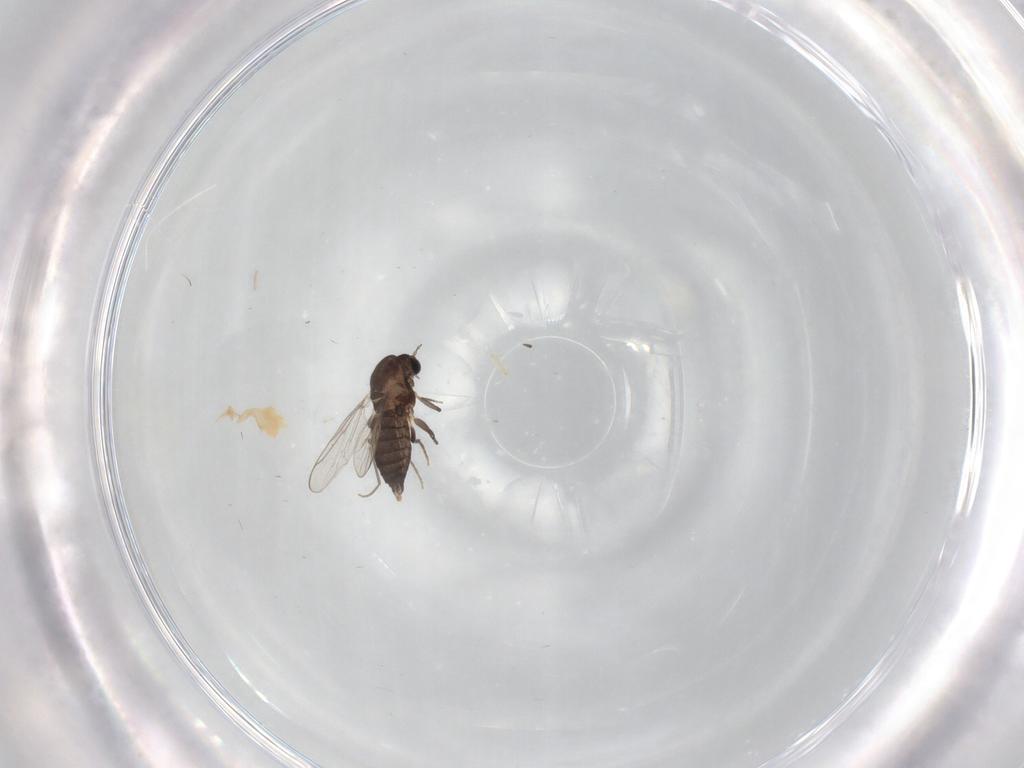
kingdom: Animalia
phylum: Arthropoda
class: Insecta
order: Diptera
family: Chironomidae
